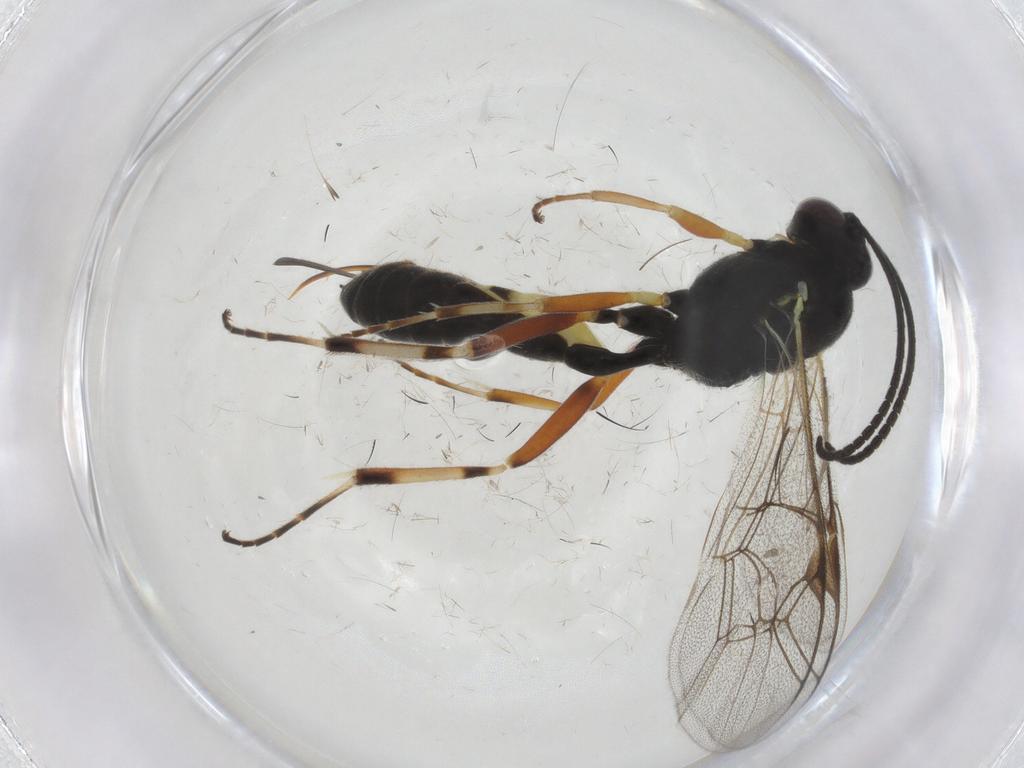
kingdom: Animalia
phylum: Arthropoda
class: Insecta
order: Hymenoptera
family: Ichneumonidae
